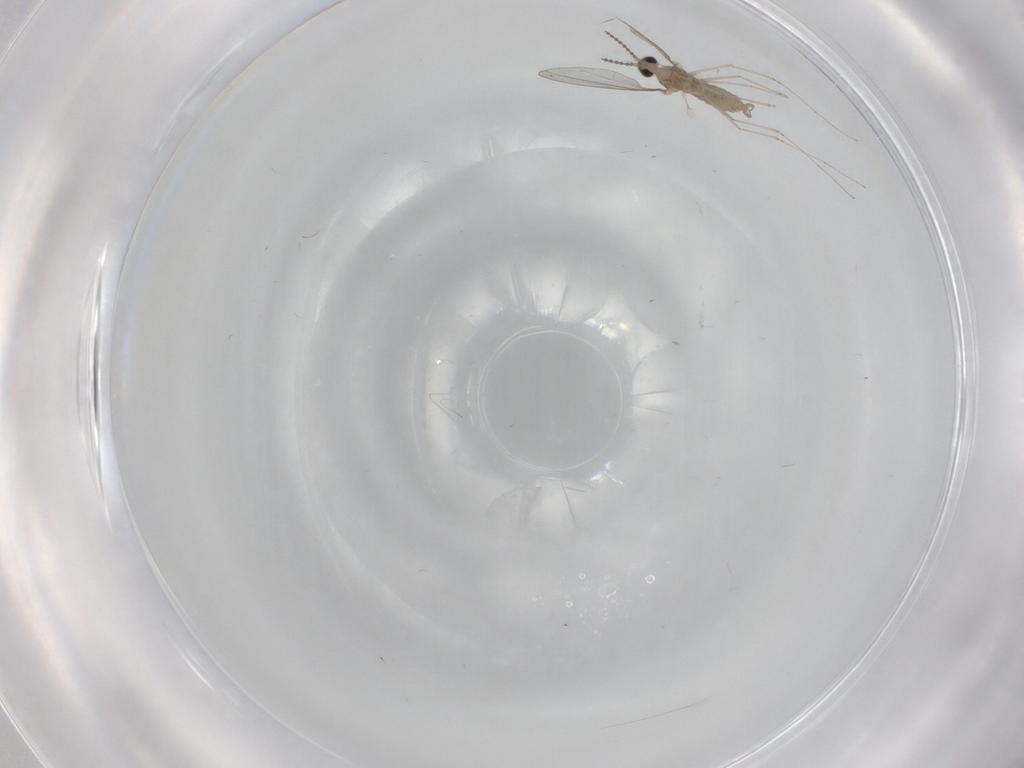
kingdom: Animalia
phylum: Arthropoda
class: Insecta
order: Diptera
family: Cecidomyiidae
